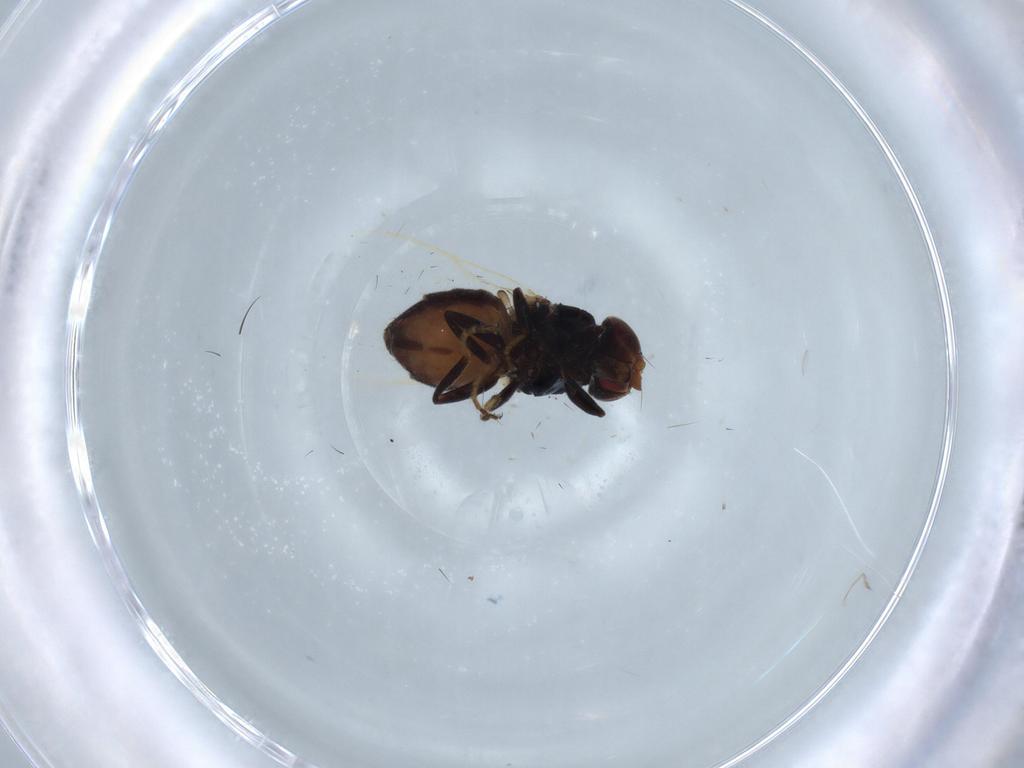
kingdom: Animalia
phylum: Arthropoda
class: Insecta
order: Diptera
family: Chloropidae
